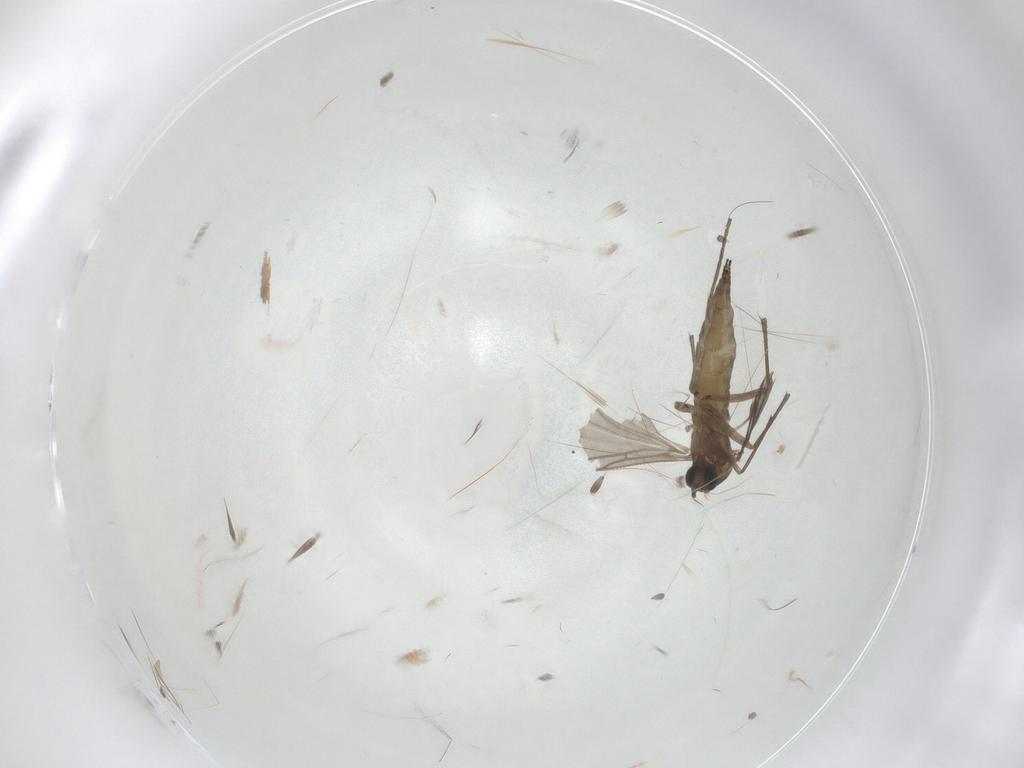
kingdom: Animalia
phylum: Arthropoda
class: Insecta
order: Diptera
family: Sciaridae
